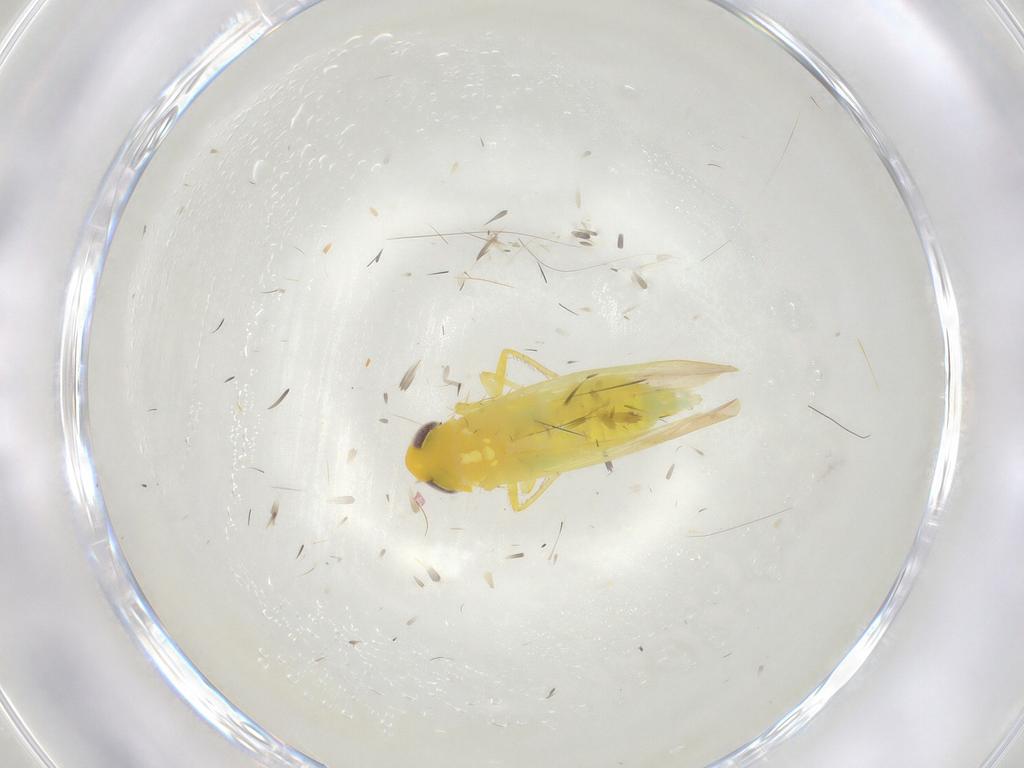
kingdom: Animalia
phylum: Arthropoda
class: Insecta
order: Hemiptera
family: Cicadellidae
